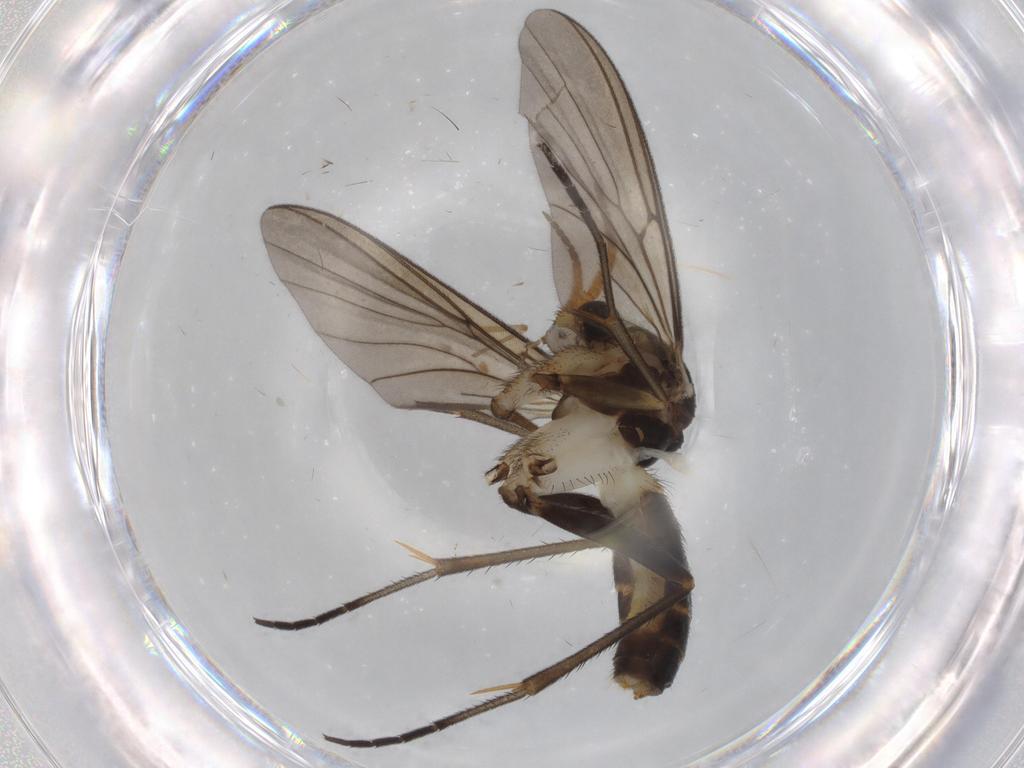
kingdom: Animalia
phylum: Arthropoda
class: Insecta
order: Diptera
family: Mycetophilidae
